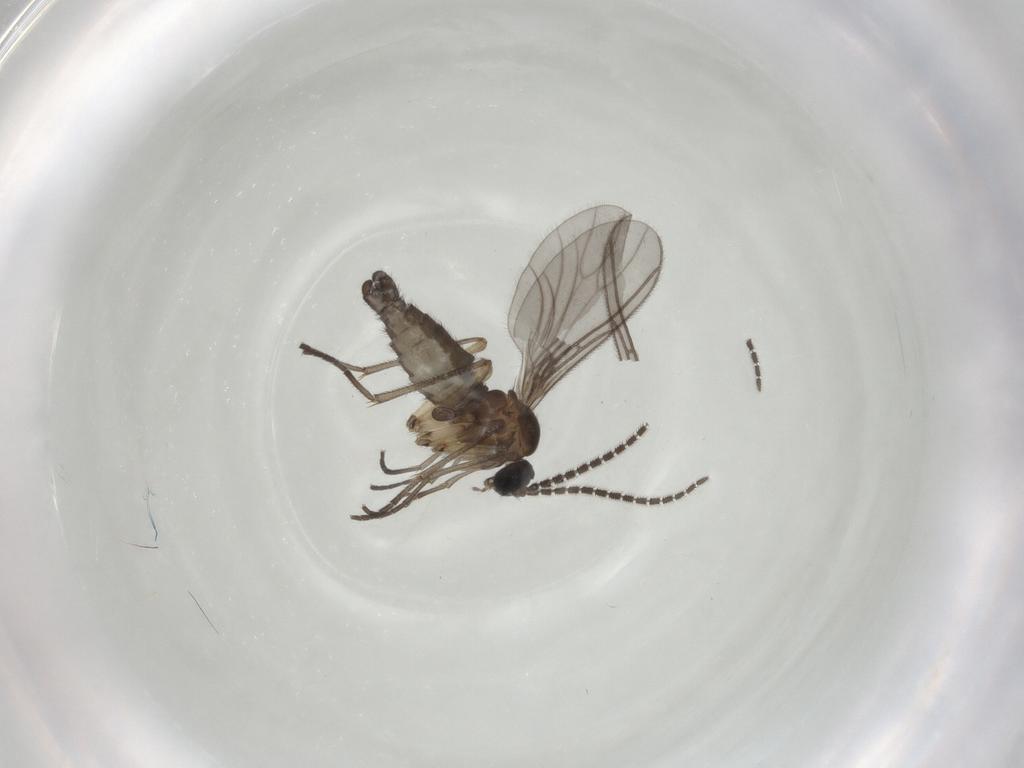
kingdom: Animalia
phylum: Arthropoda
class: Insecta
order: Diptera
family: Sciaridae
